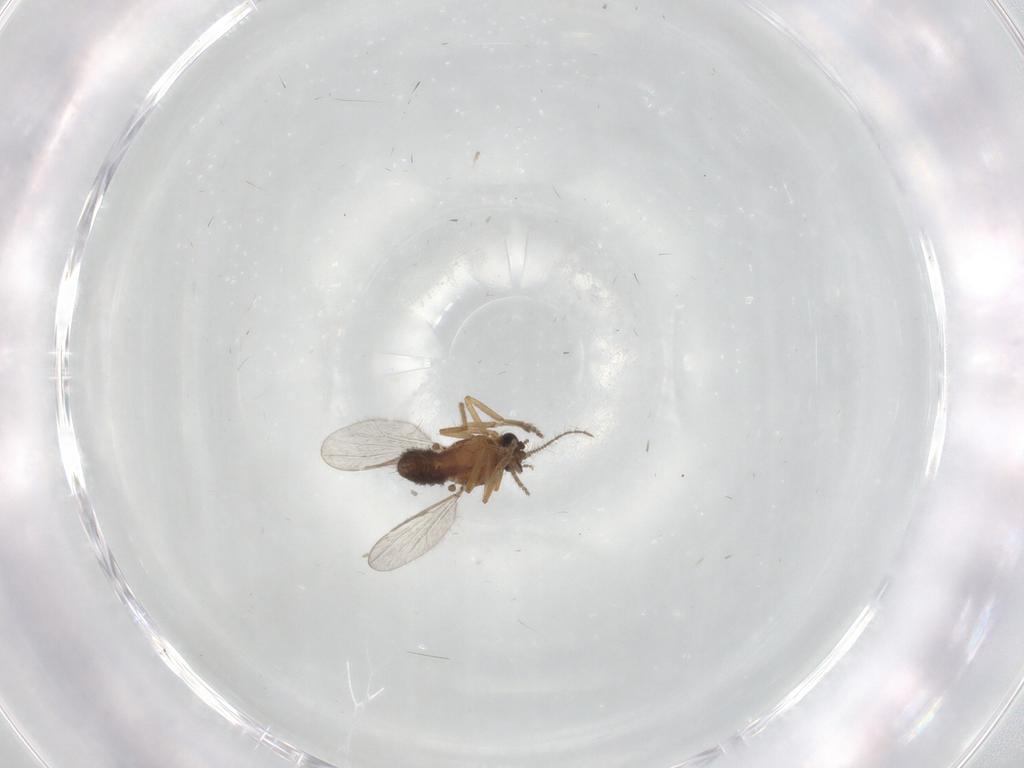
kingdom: Animalia
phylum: Arthropoda
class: Insecta
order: Diptera
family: Ceratopogonidae
